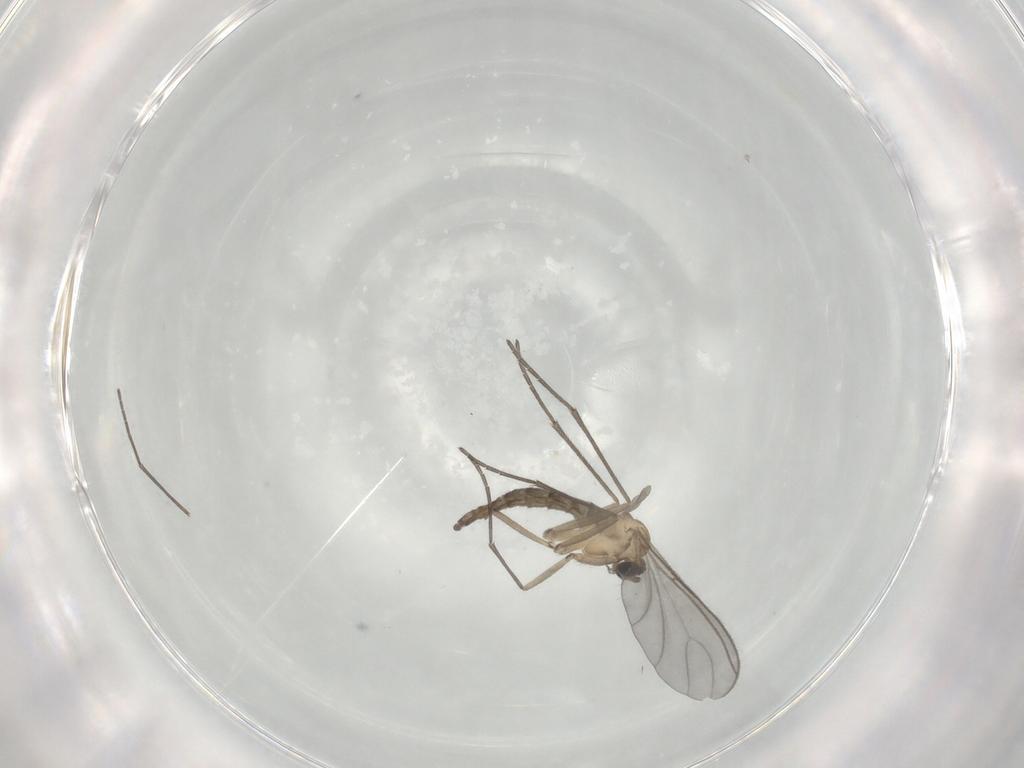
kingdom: Animalia
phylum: Arthropoda
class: Insecta
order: Diptera
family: Sciaridae
